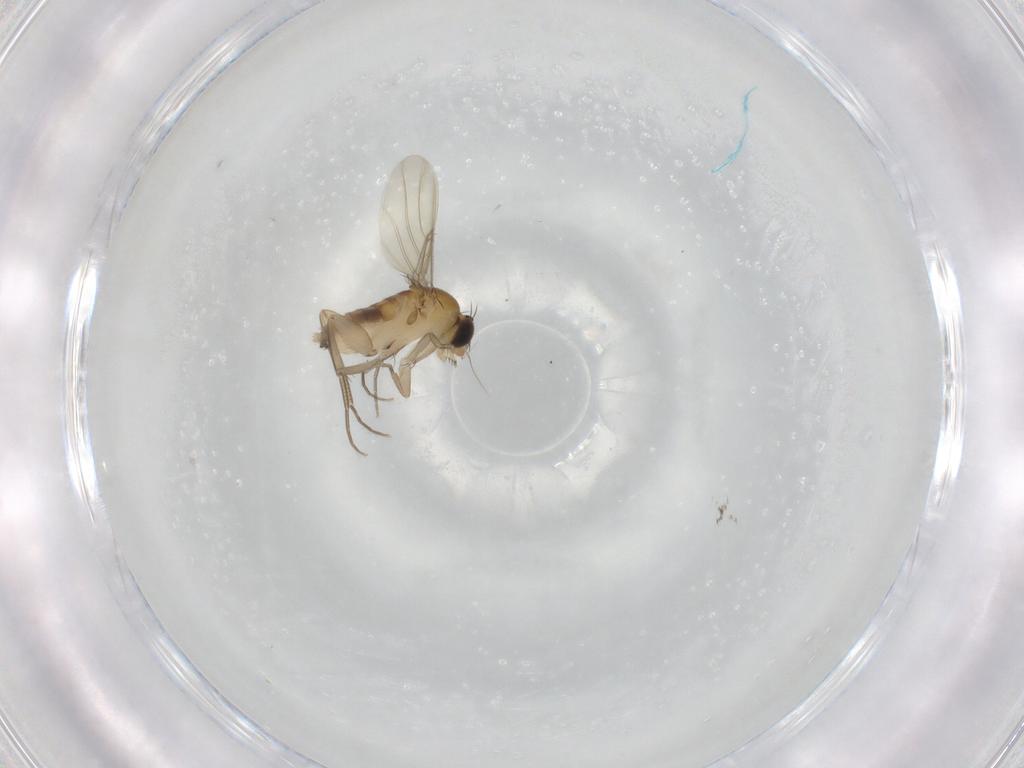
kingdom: Animalia
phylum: Arthropoda
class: Insecta
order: Diptera
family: Phoridae
